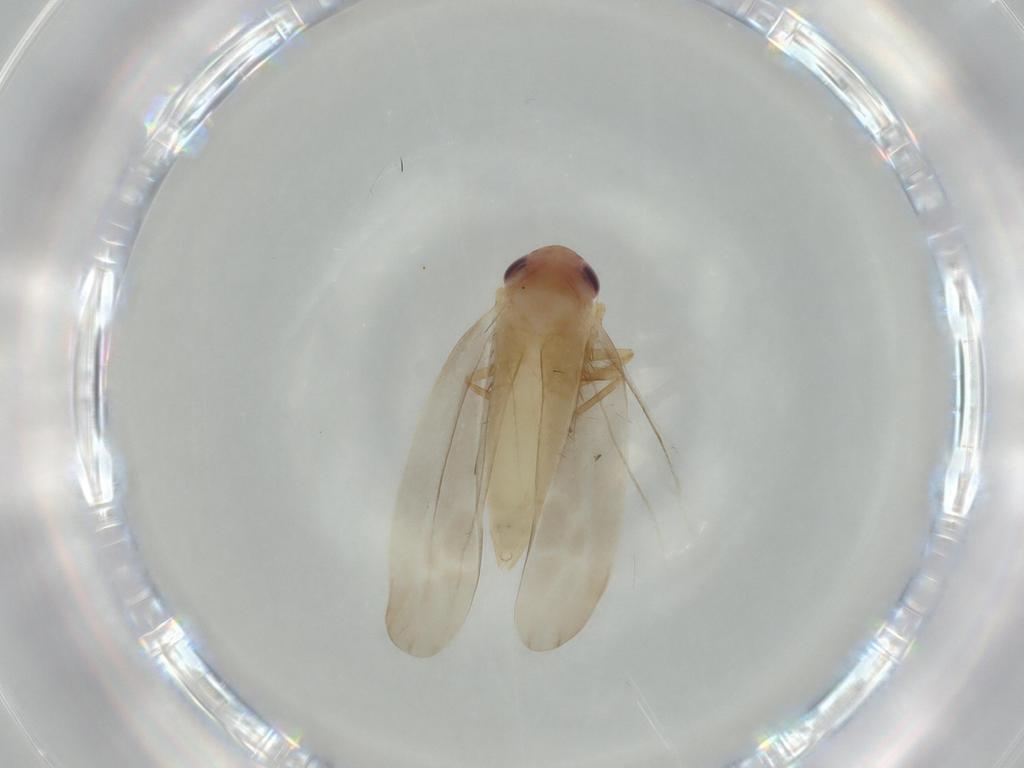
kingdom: Animalia
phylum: Arthropoda
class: Insecta
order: Hemiptera
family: Cicadellidae
